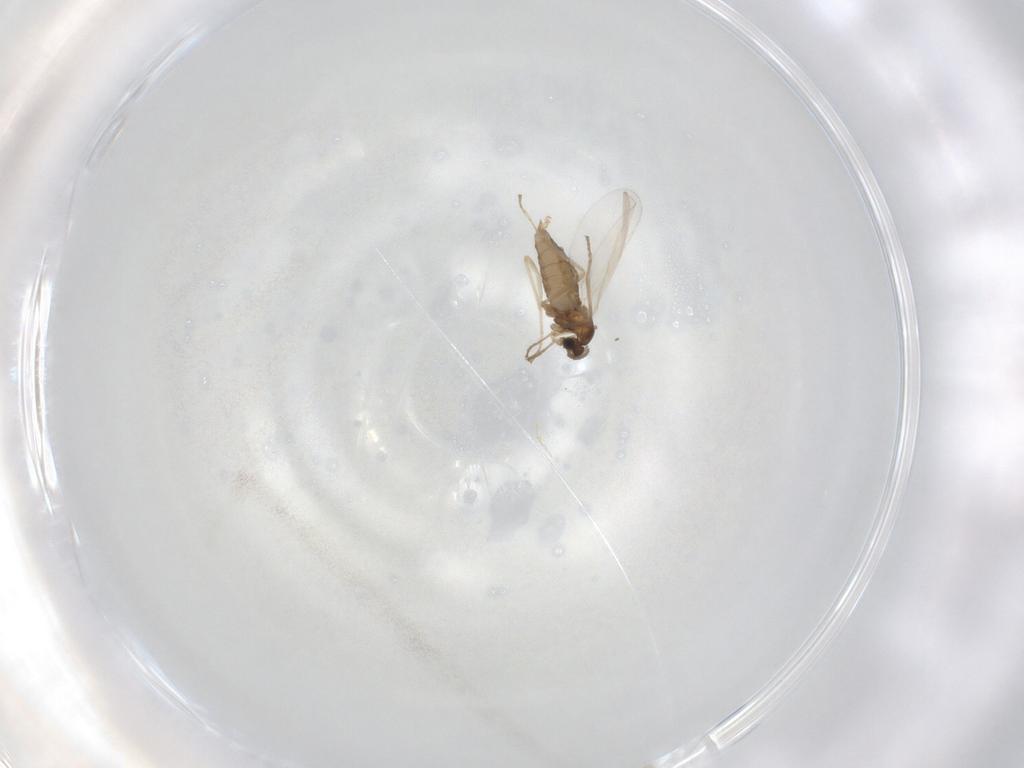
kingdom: Animalia
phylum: Arthropoda
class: Insecta
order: Diptera
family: Cecidomyiidae
